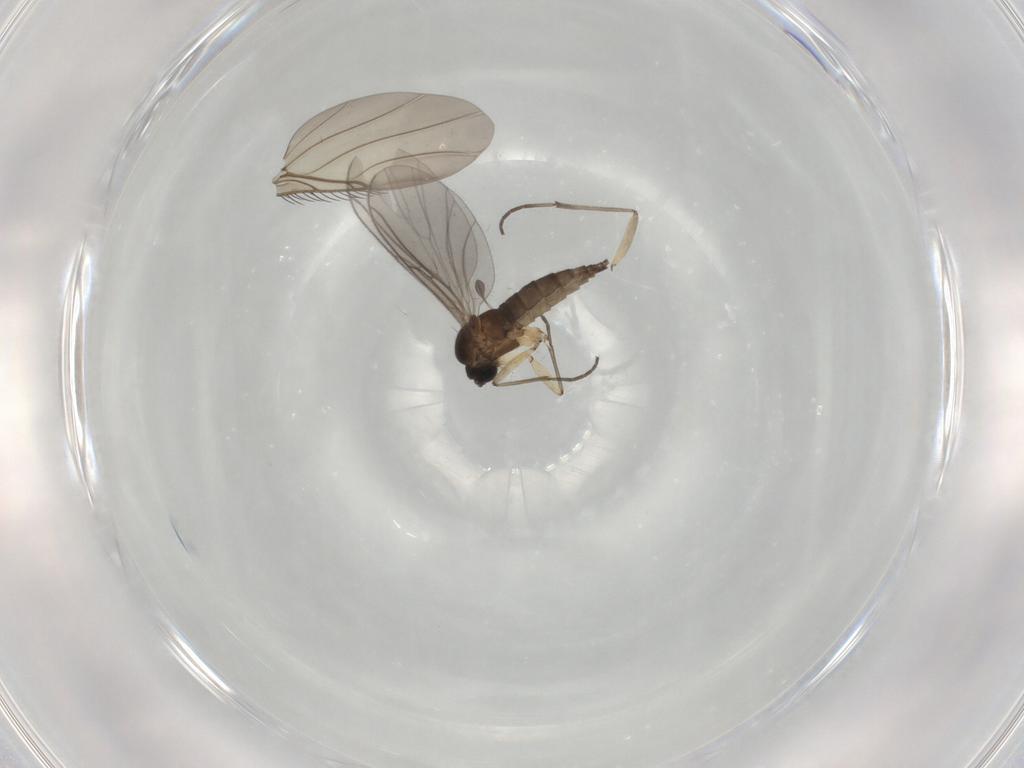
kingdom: Animalia
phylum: Arthropoda
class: Insecta
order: Diptera
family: Sciaridae
